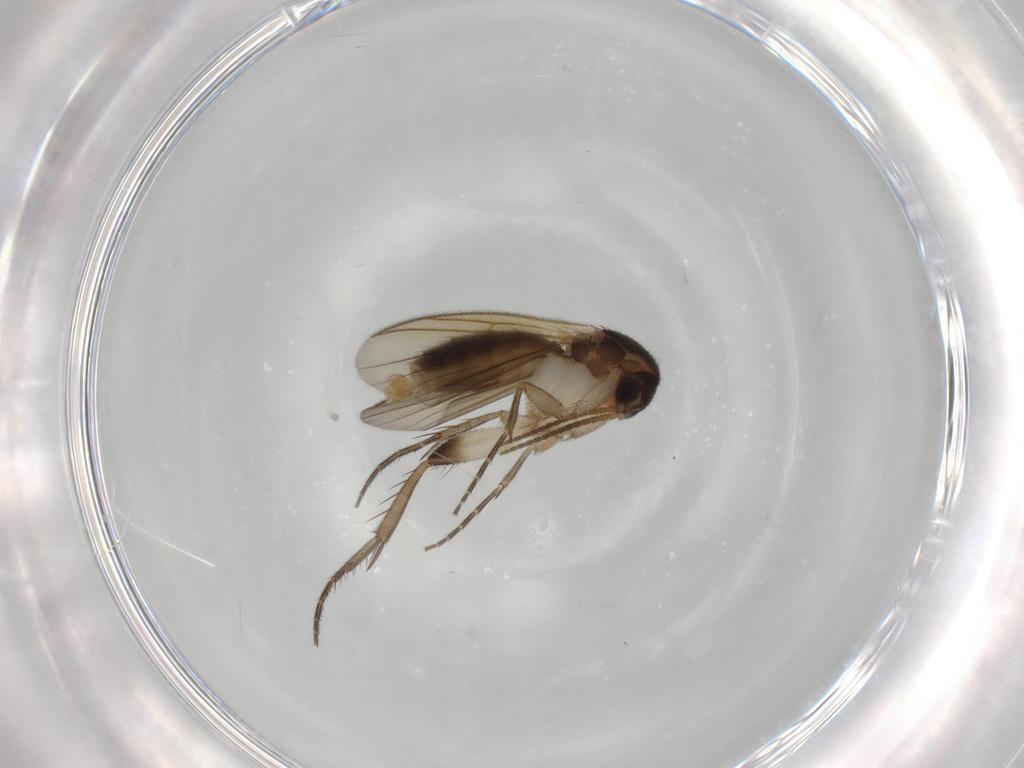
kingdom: Animalia
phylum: Arthropoda
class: Insecta
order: Diptera
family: Sciaridae
